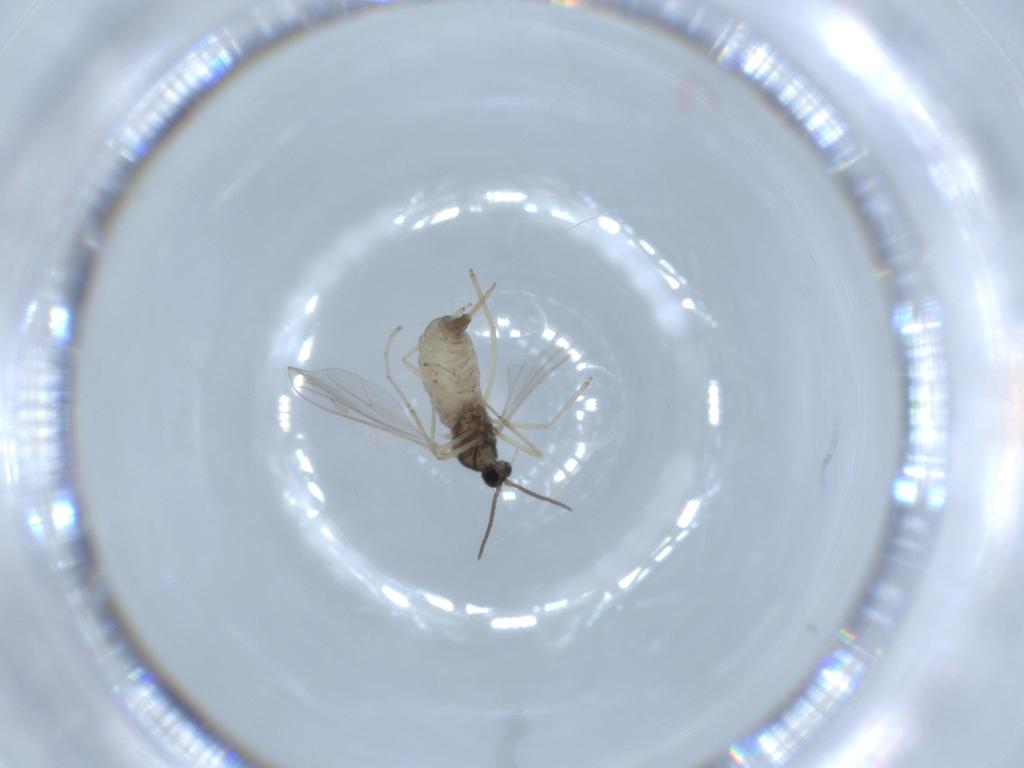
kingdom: Animalia
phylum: Arthropoda
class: Insecta
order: Diptera
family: Cecidomyiidae
